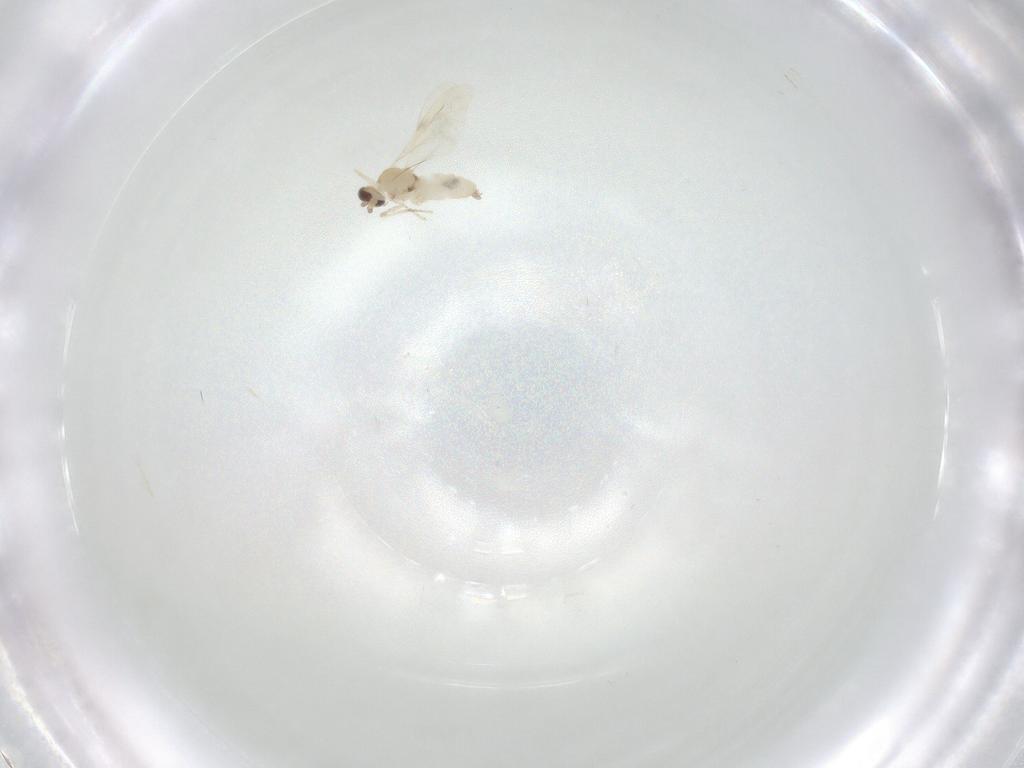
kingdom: Animalia
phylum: Arthropoda
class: Insecta
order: Diptera
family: Cecidomyiidae
